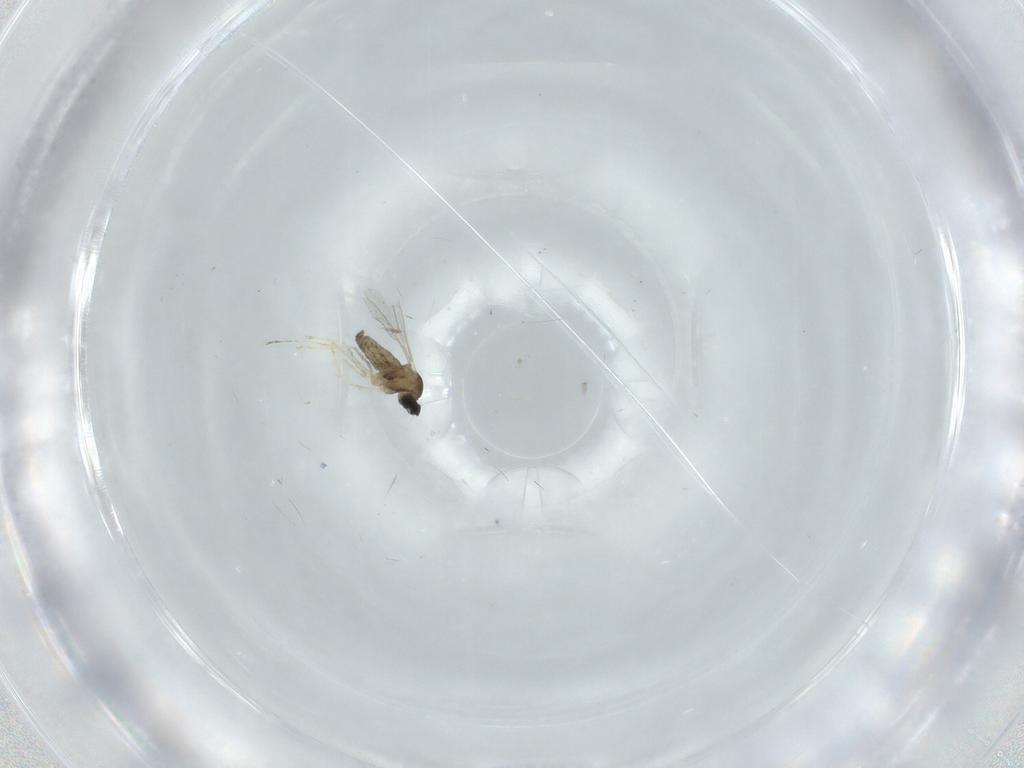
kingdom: Animalia
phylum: Arthropoda
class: Insecta
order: Diptera
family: Cecidomyiidae
